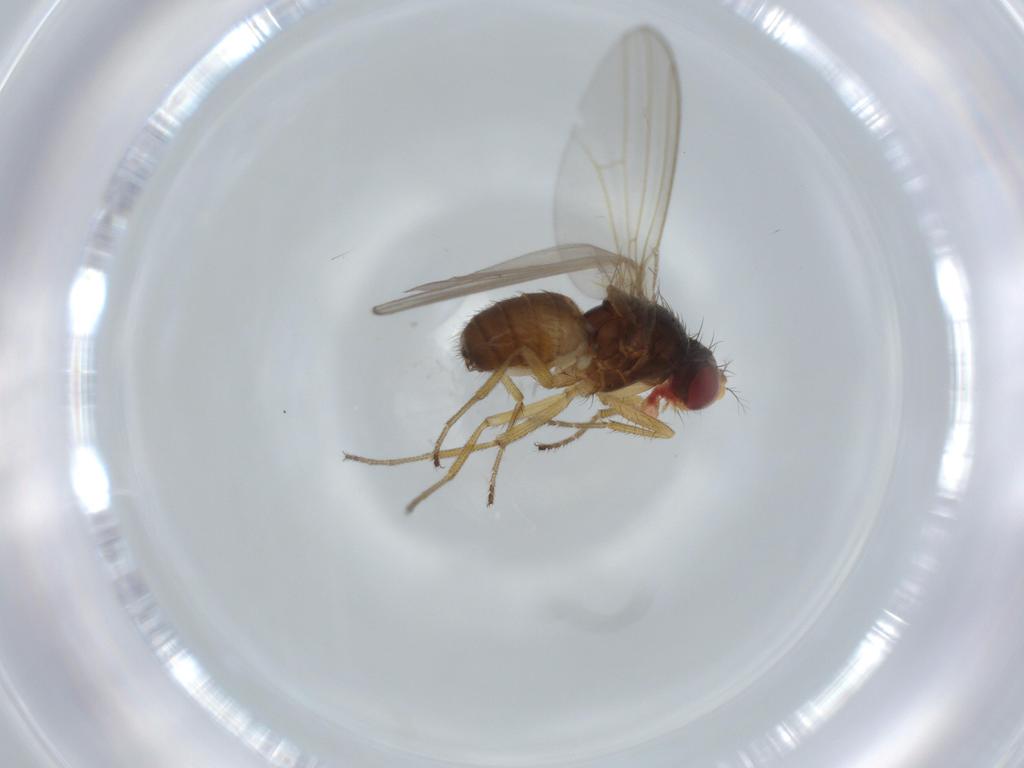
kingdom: Animalia
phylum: Arthropoda
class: Insecta
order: Diptera
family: Drosophilidae
